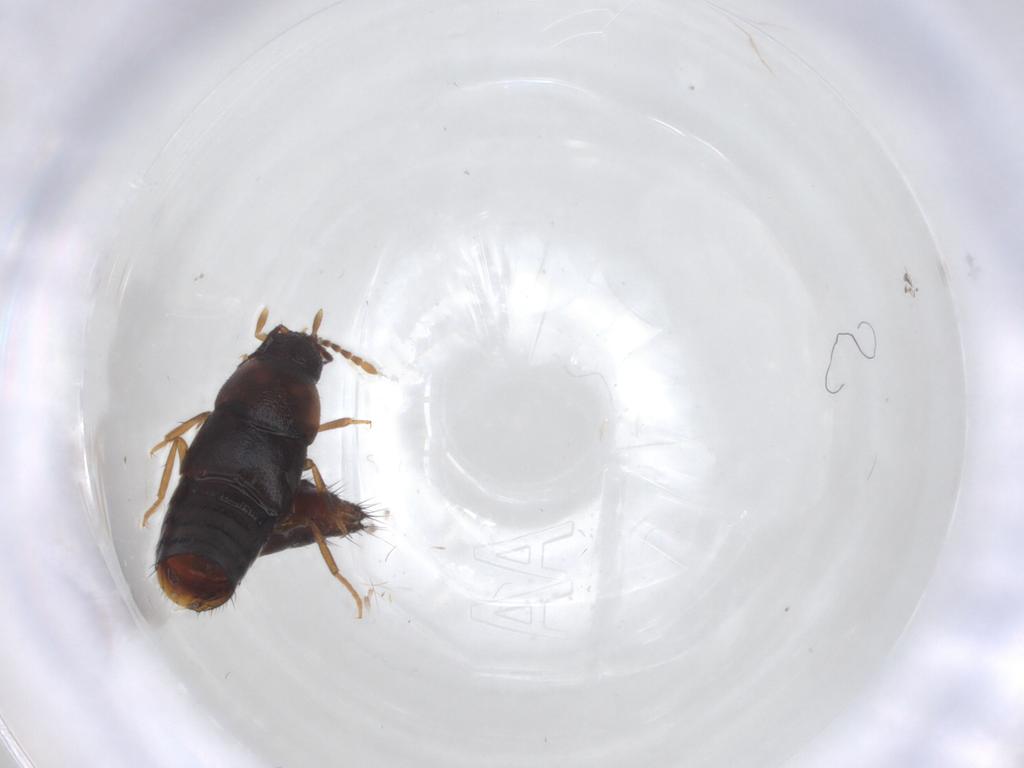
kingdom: Animalia
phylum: Arthropoda
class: Insecta
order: Coleoptera
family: Staphylinidae
